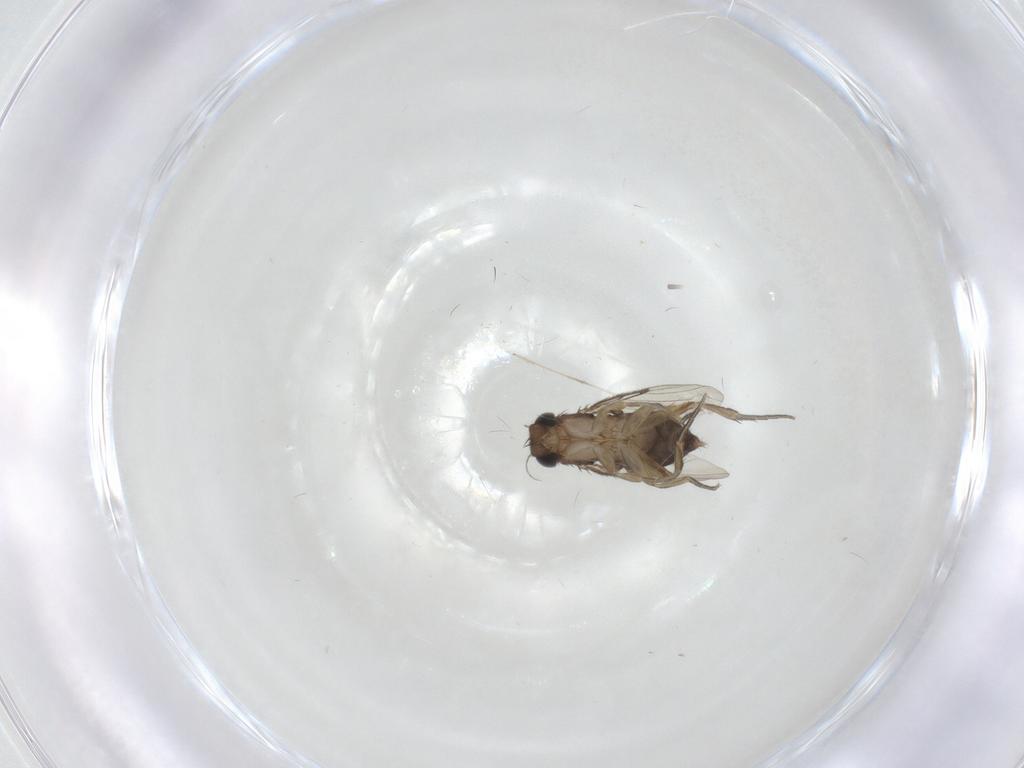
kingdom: Animalia
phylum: Arthropoda
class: Insecta
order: Diptera
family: Phoridae
